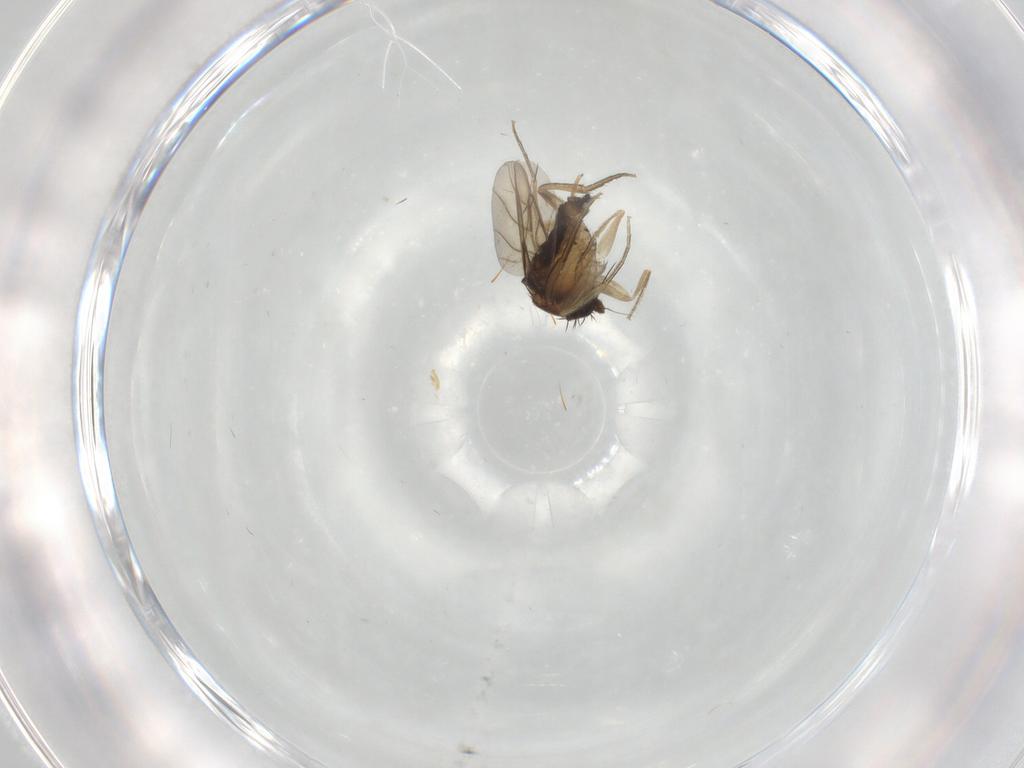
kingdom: Animalia
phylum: Arthropoda
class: Insecta
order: Diptera
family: Phoridae
